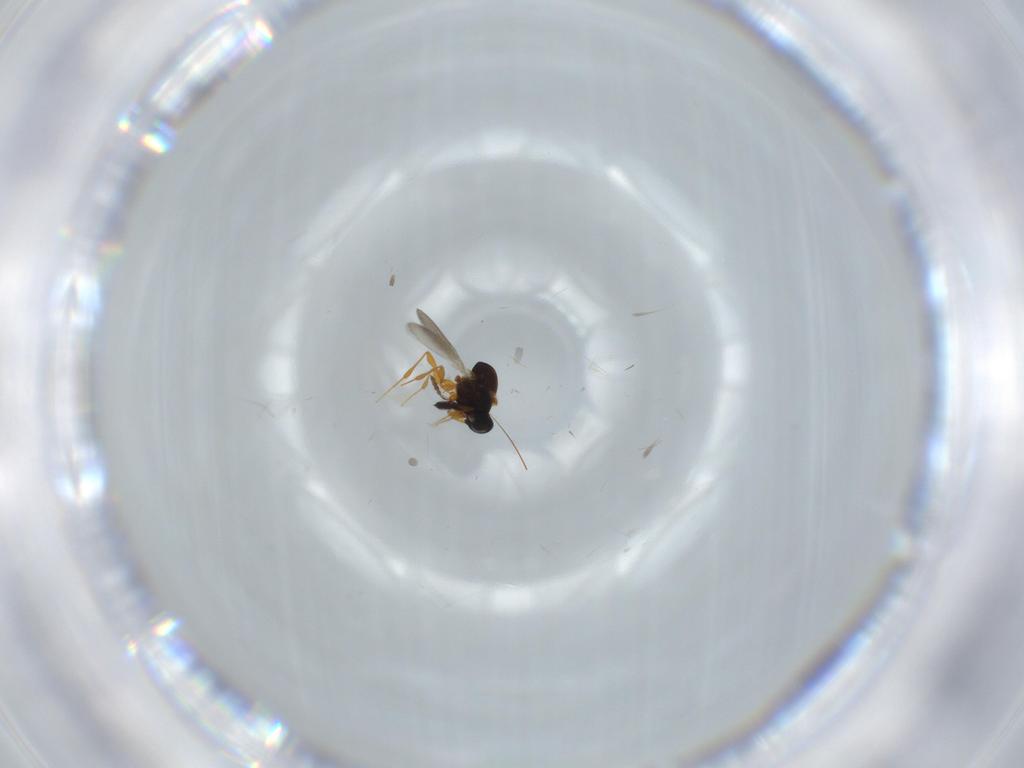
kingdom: Animalia
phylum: Arthropoda
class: Insecta
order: Hymenoptera
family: Platygastridae
